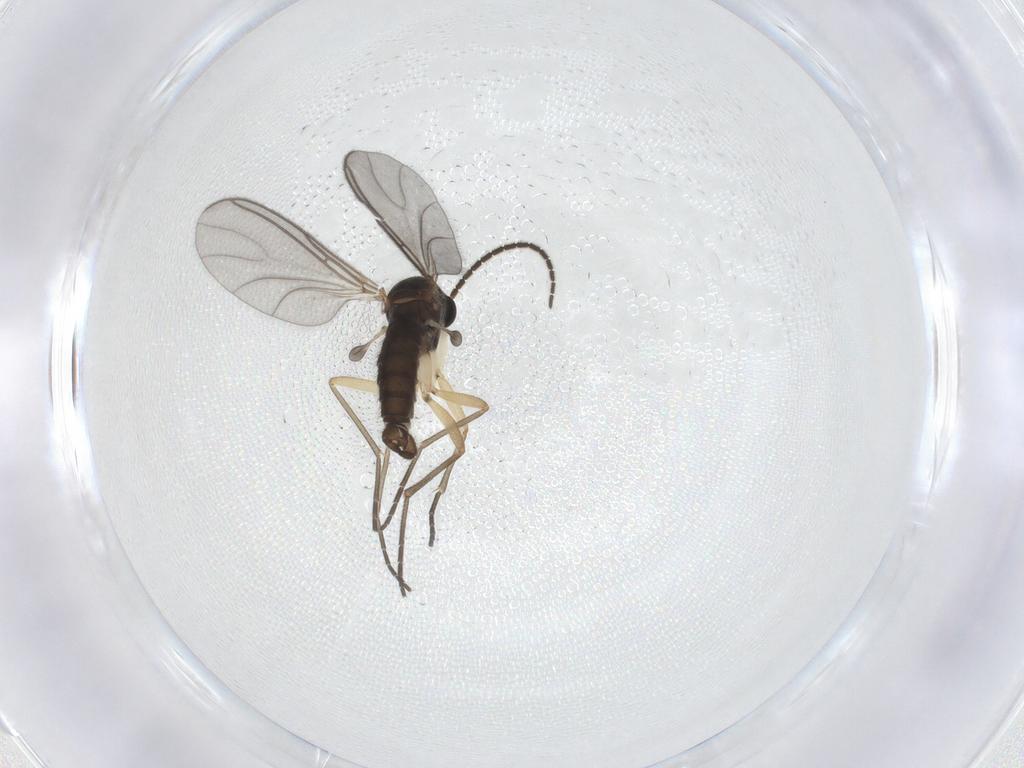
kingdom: Animalia
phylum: Arthropoda
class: Insecta
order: Diptera
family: Sciaridae
